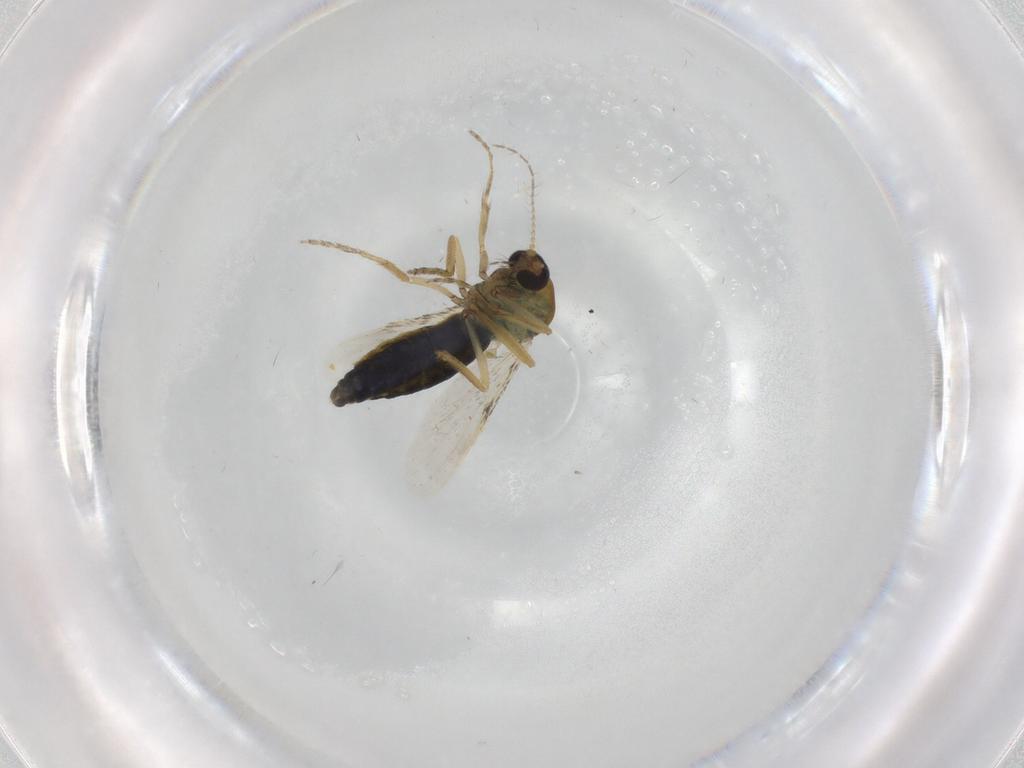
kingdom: Animalia
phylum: Arthropoda
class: Insecta
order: Diptera
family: Ceratopogonidae
